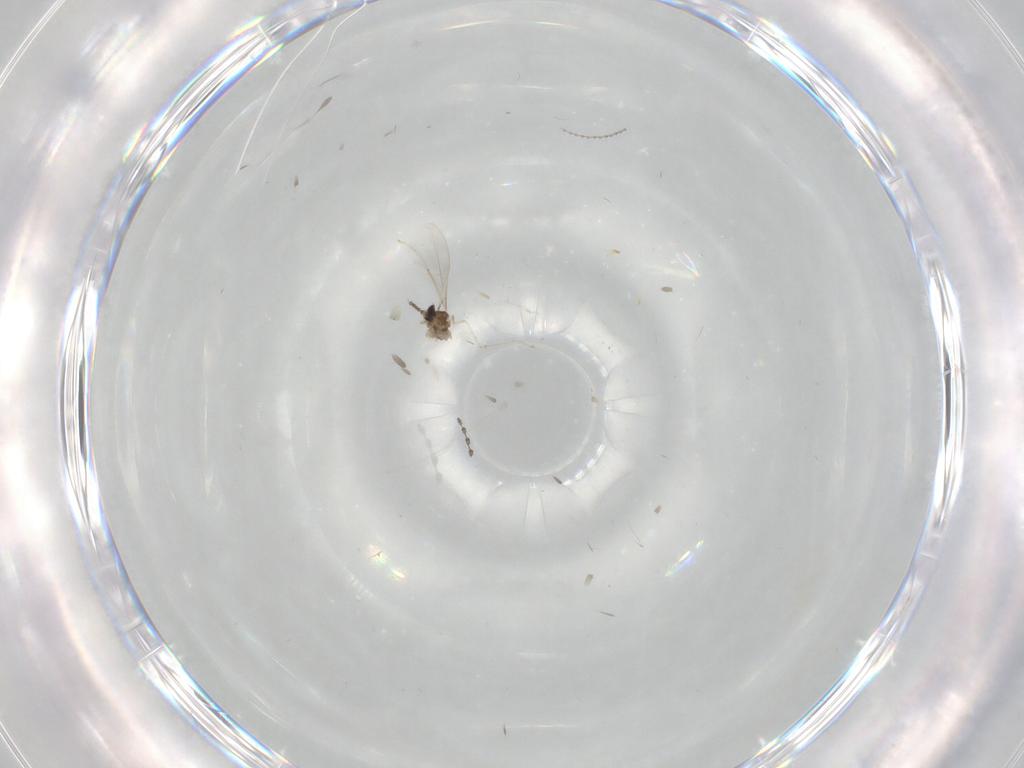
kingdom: Animalia
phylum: Arthropoda
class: Insecta
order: Diptera
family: Cecidomyiidae
